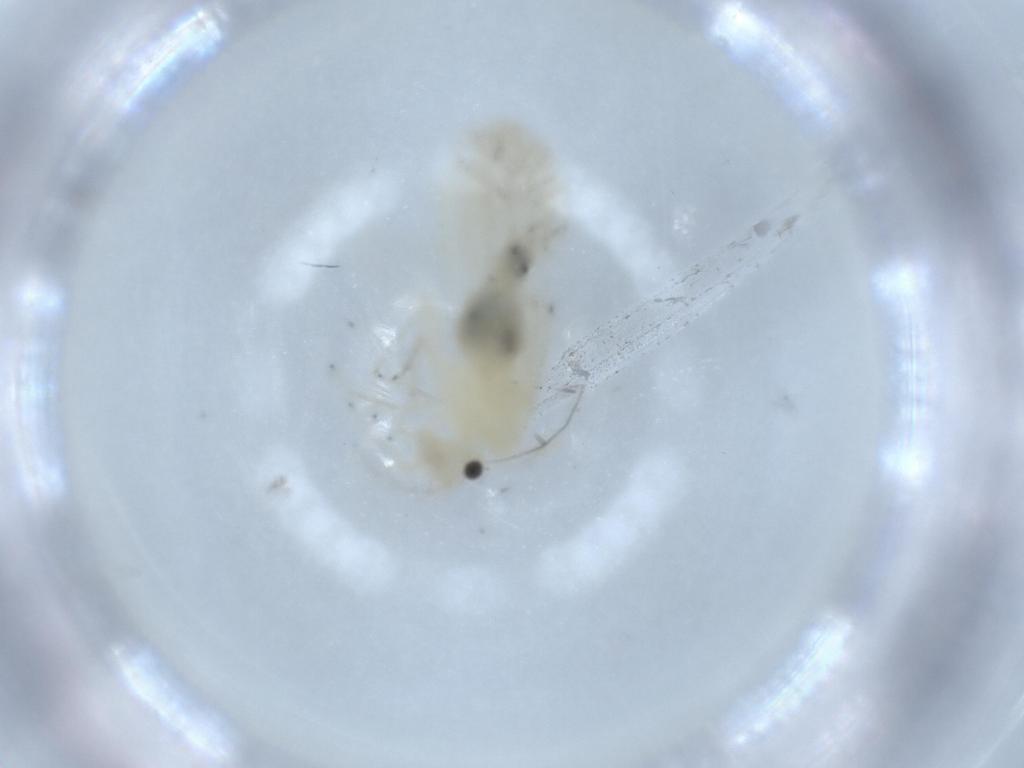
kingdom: Animalia
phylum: Arthropoda
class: Insecta
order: Psocodea
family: Caeciliusidae
